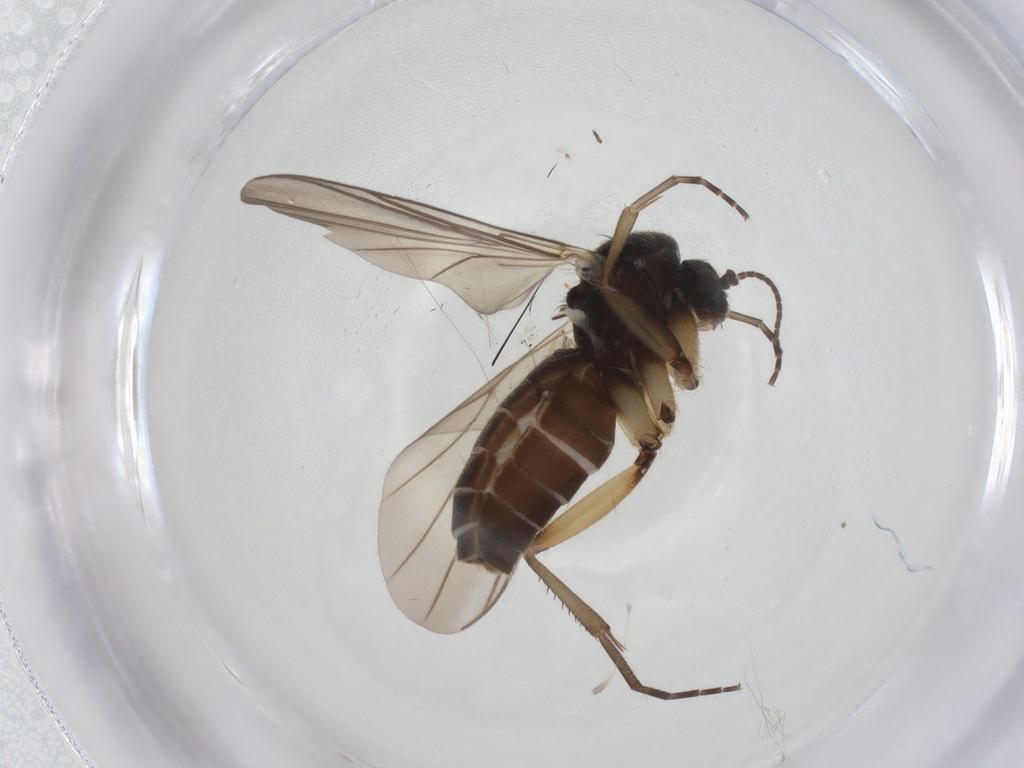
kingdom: Animalia
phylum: Arthropoda
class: Insecta
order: Diptera
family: Mycetophilidae
